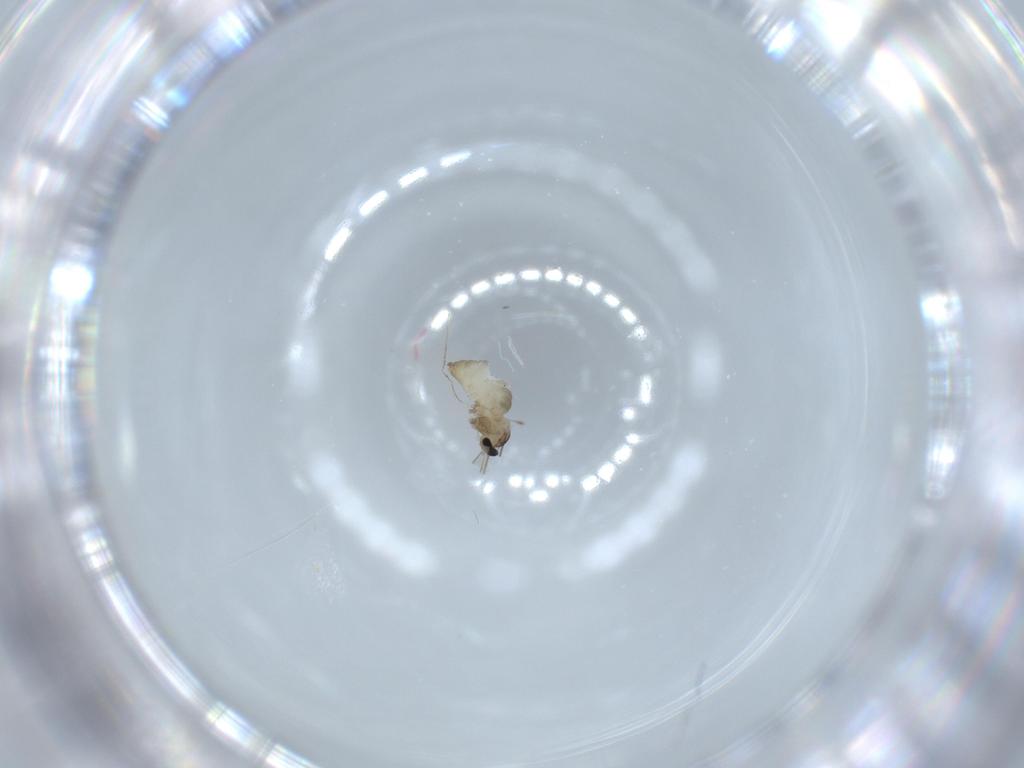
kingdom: Animalia
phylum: Arthropoda
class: Insecta
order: Diptera
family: Cecidomyiidae
